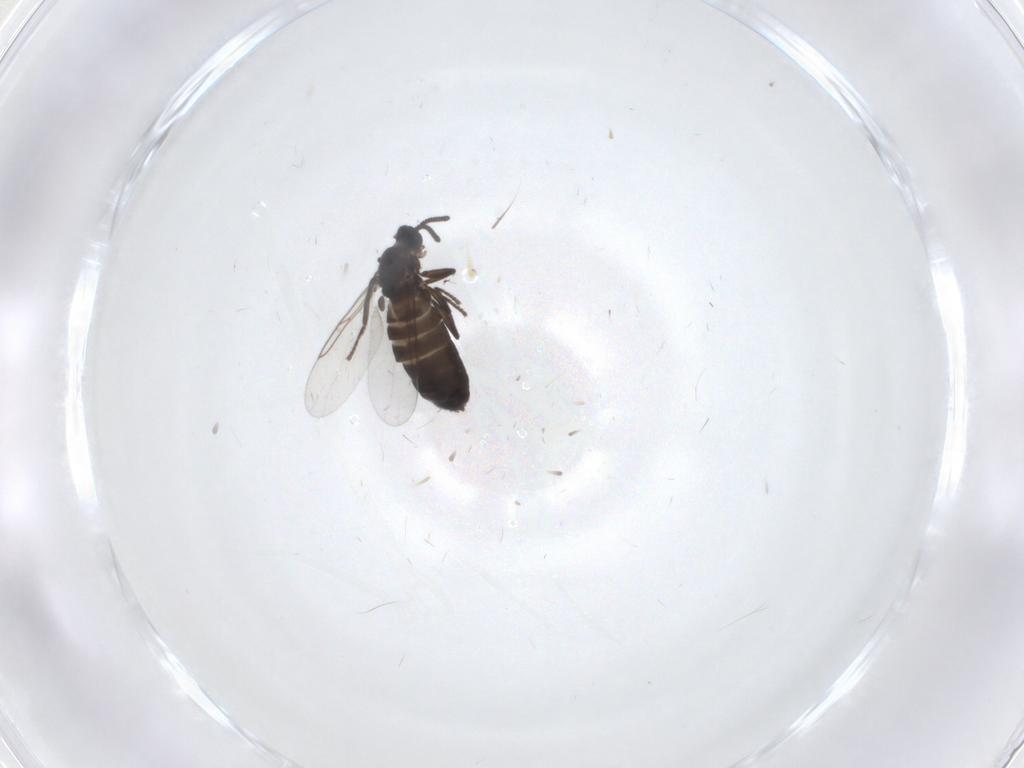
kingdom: Animalia
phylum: Arthropoda
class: Insecta
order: Diptera
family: Scatopsidae
